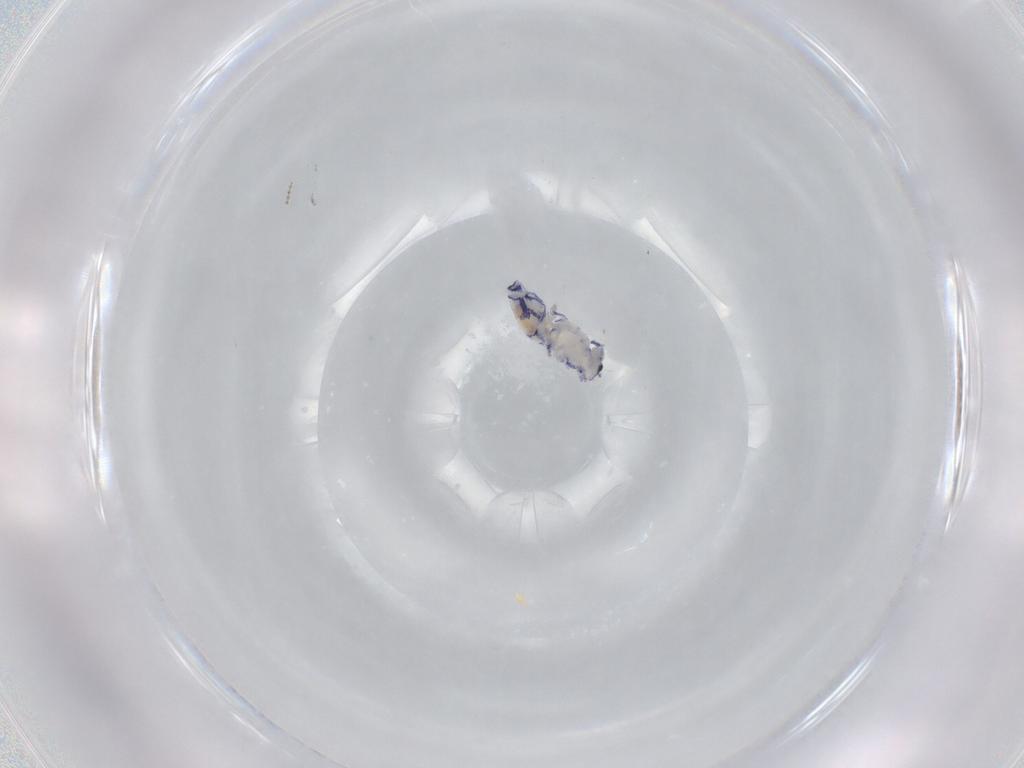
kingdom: Animalia
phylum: Arthropoda
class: Collembola
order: Entomobryomorpha
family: Entomobryidae
